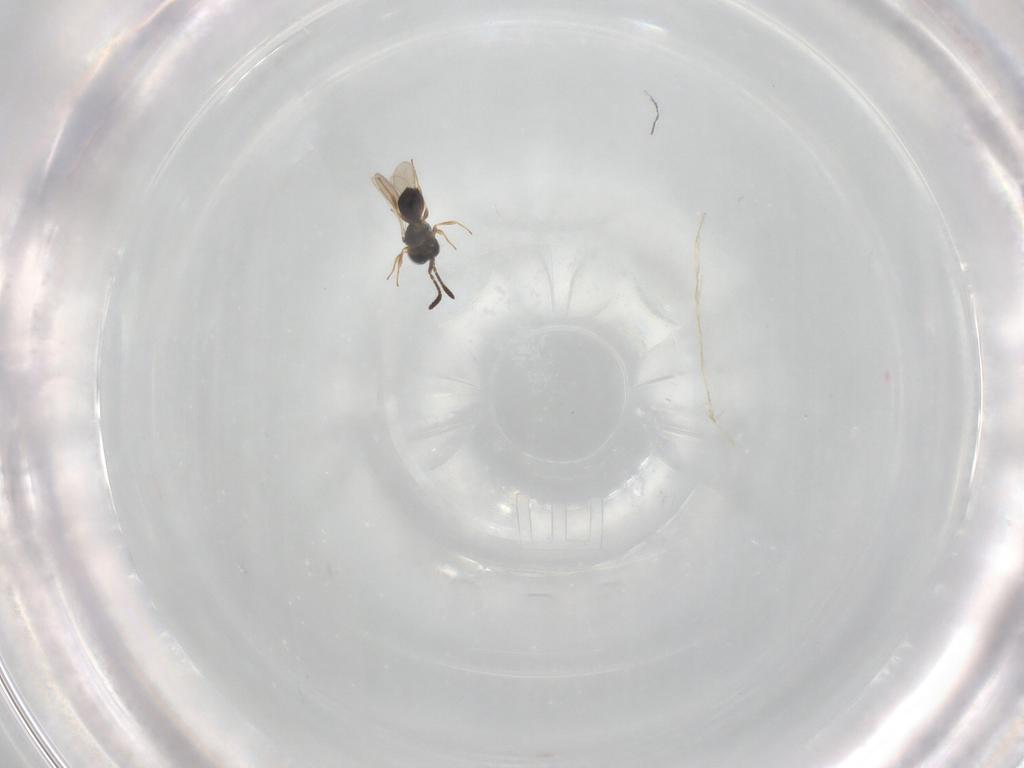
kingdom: Animalia
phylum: Arthropoda
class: Insecta
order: Hymenoptera
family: Scelionidae
